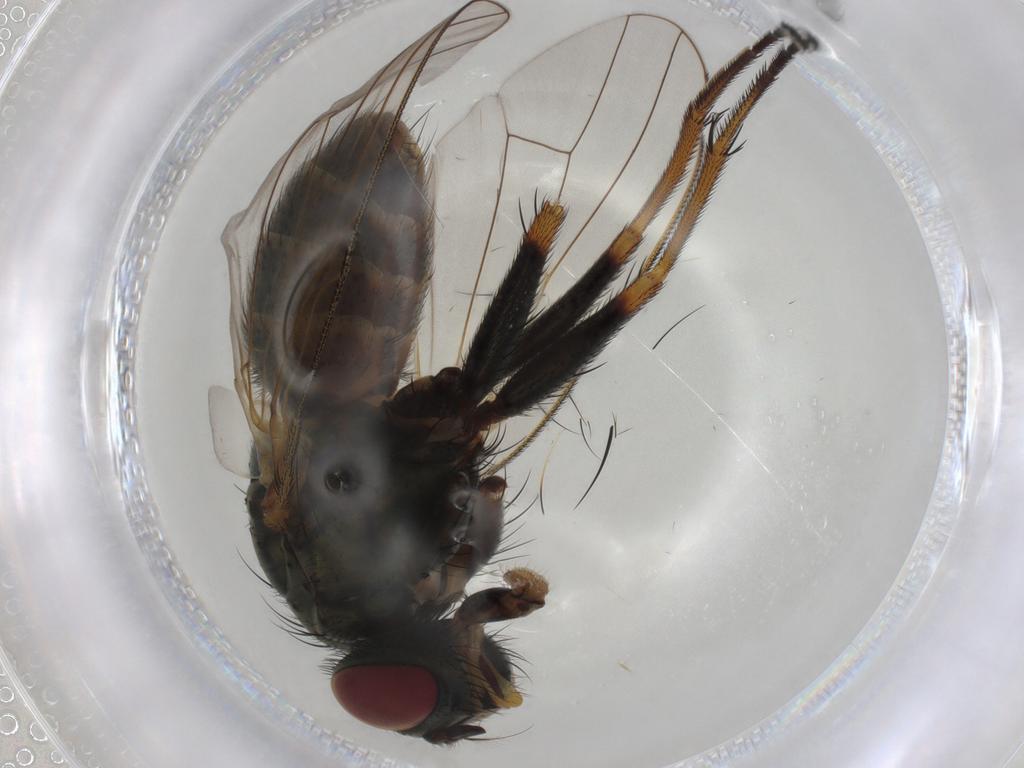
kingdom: Animalia
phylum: Arthropoda
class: Insecta
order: Diptera
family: Muscidae
